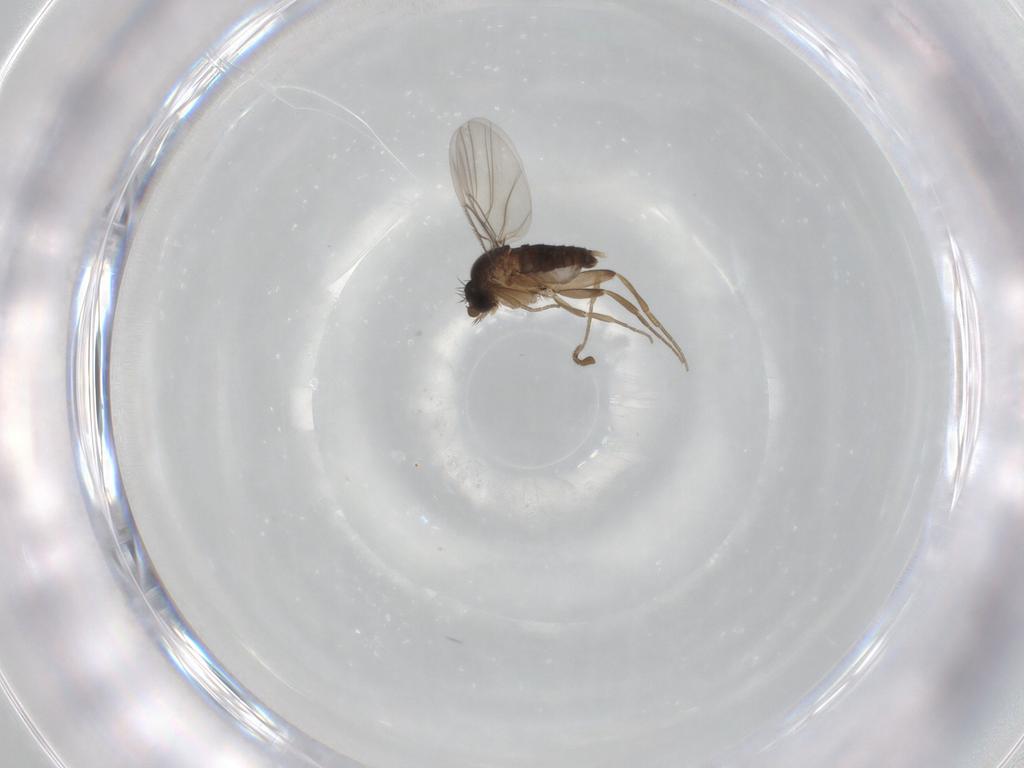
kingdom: Animalia
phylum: Arthropoda
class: Insecta
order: Diptera
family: Phoridae
